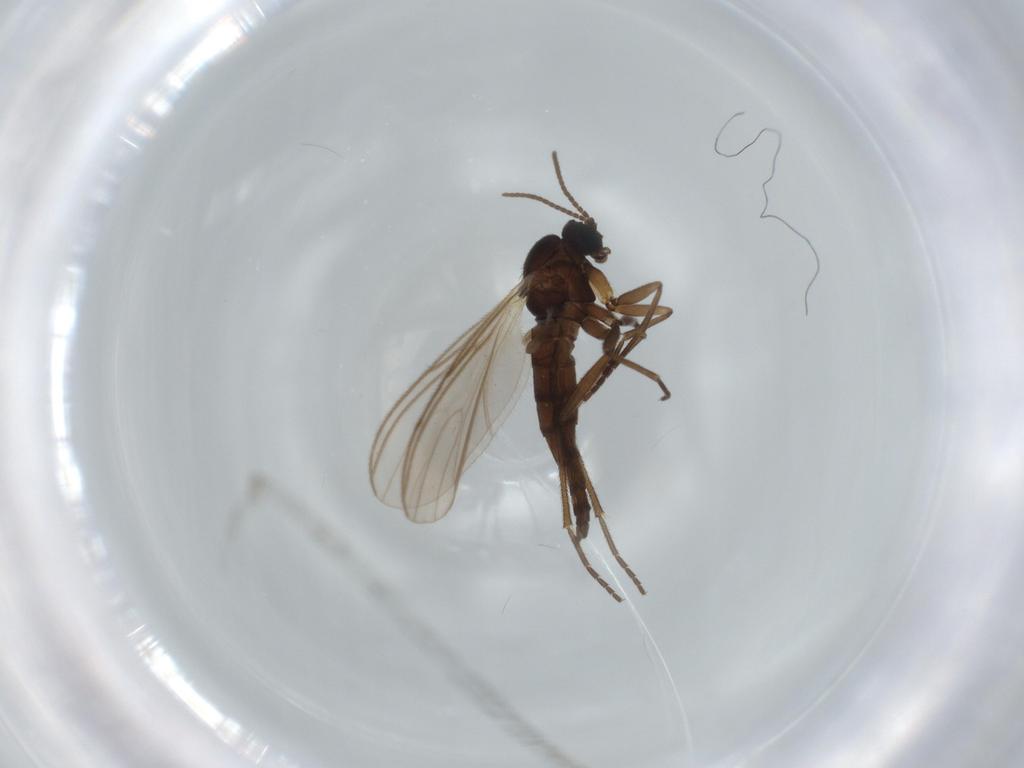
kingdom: Animalia
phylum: Arthropoda
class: Insecta
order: Diptera
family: Sciaridae
